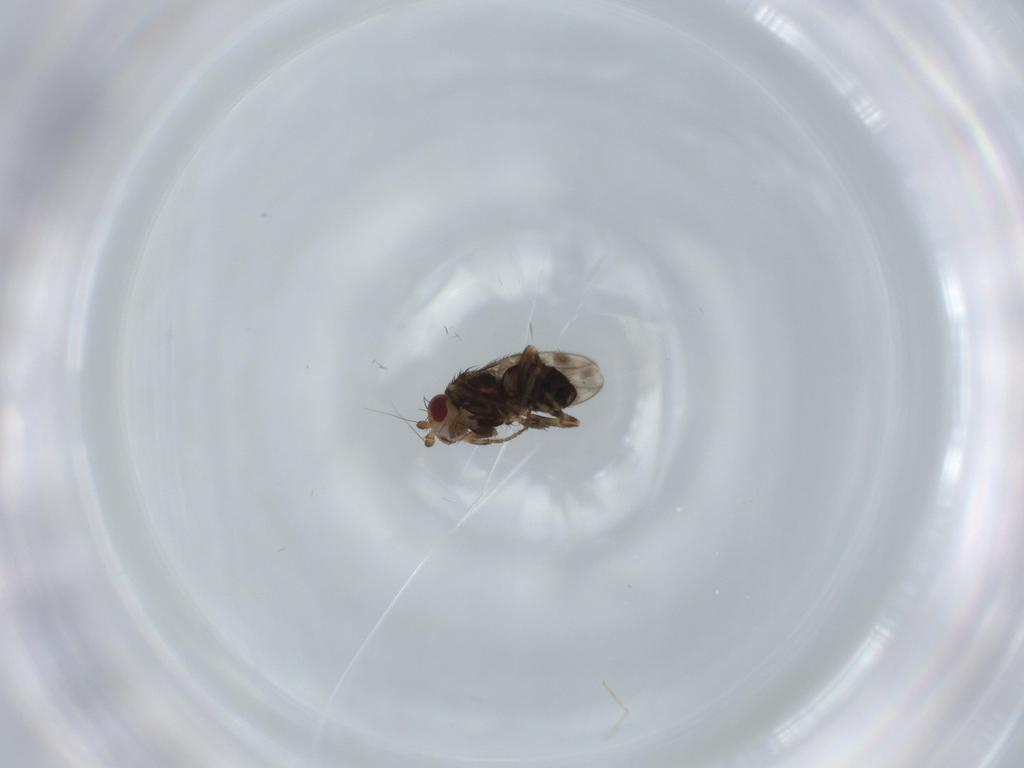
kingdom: Animalia
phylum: Arthropoda
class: Insecta
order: Diptera
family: Sphaeroceridae
